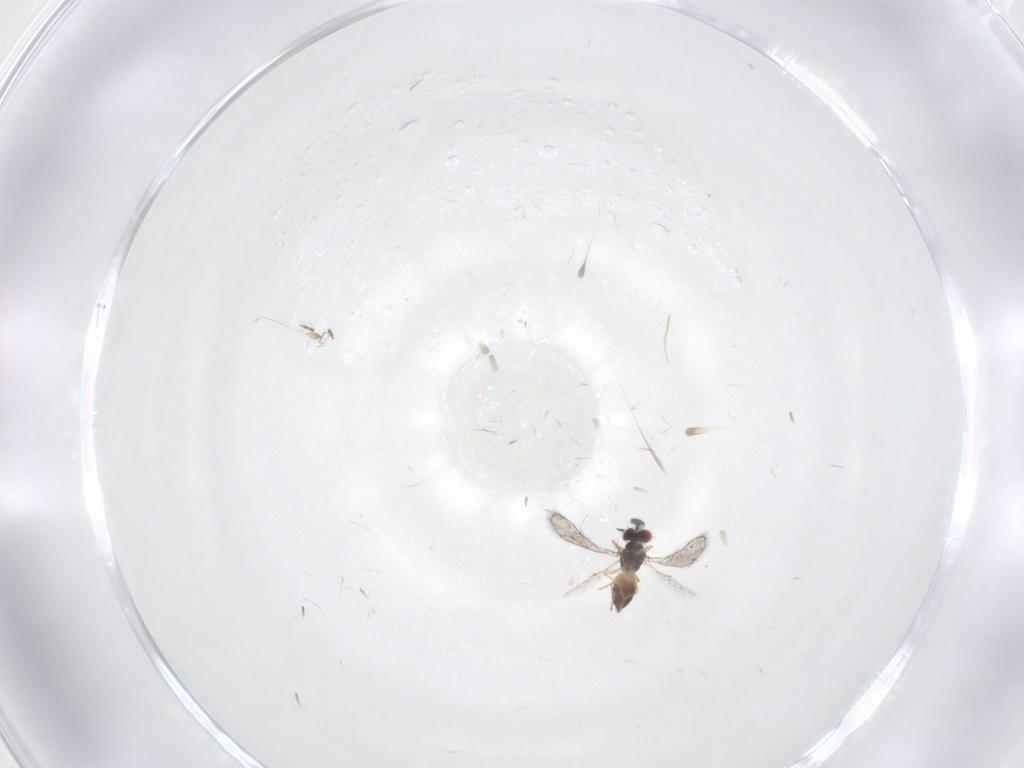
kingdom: Animalia
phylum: Arthropoda
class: Insecta
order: Hymenoptera
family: Eulophidae
